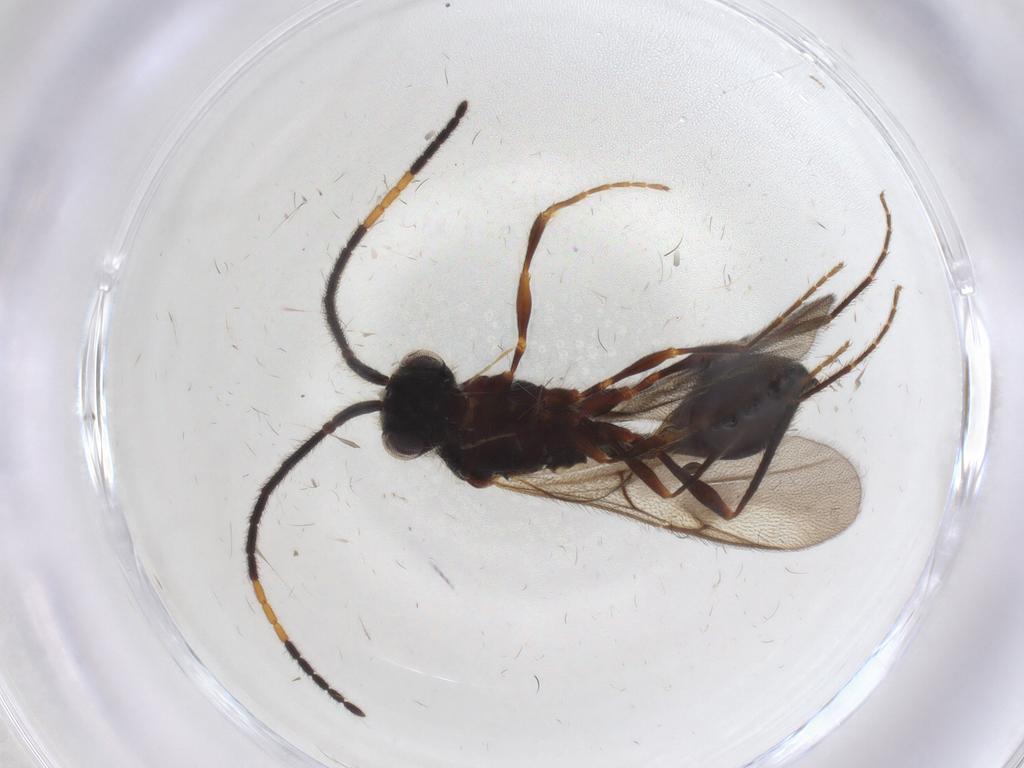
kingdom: Animalia
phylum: Arthropoda
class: Insecta
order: Hymenoptera
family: Diapriidae
